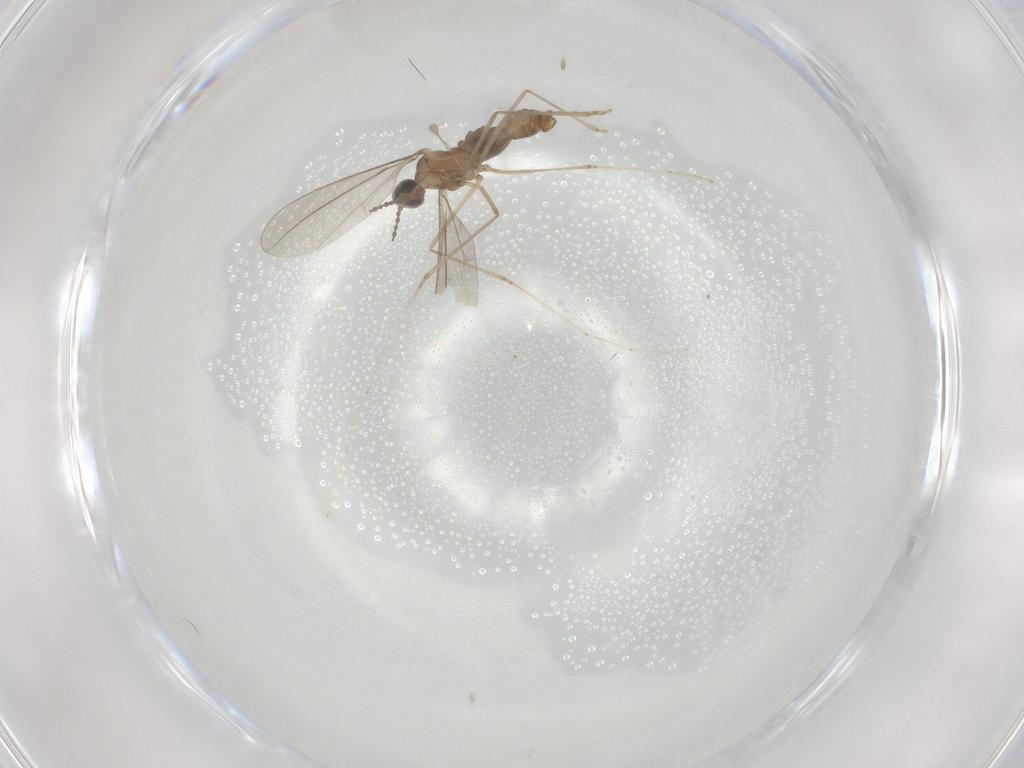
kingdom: Animalia
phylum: Arthropoda
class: Insecta
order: Diptera
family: Cecidomyiidae
